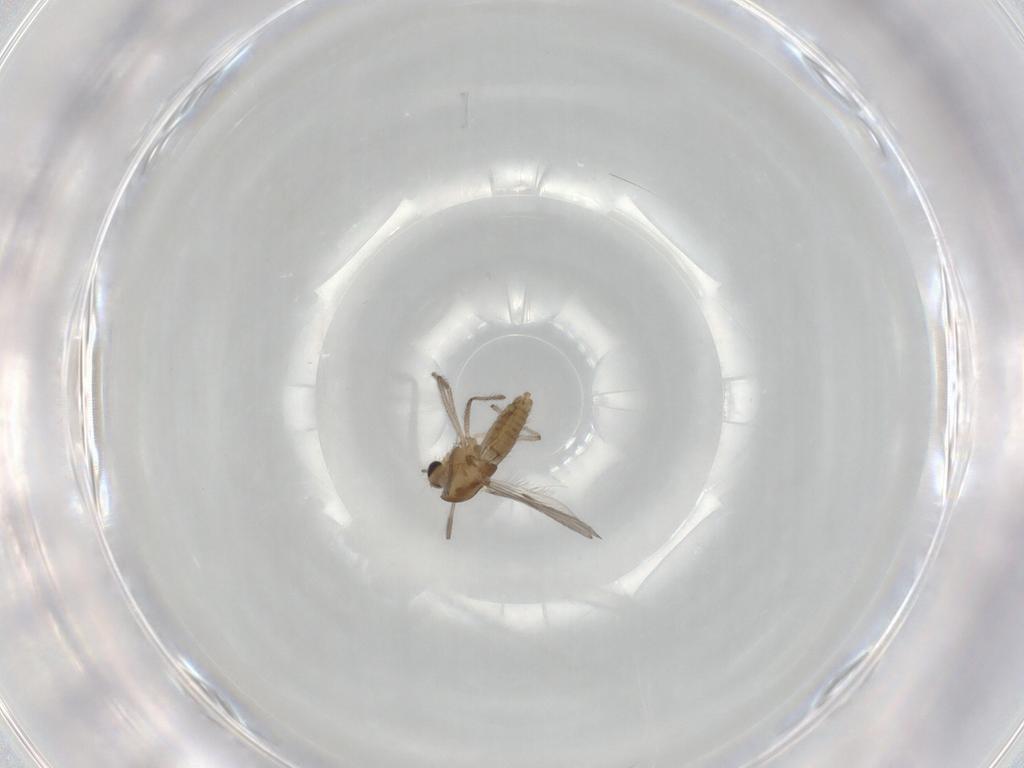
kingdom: Animalia
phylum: Arthropoda
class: Insecta
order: Diptera
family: Chironomidae
